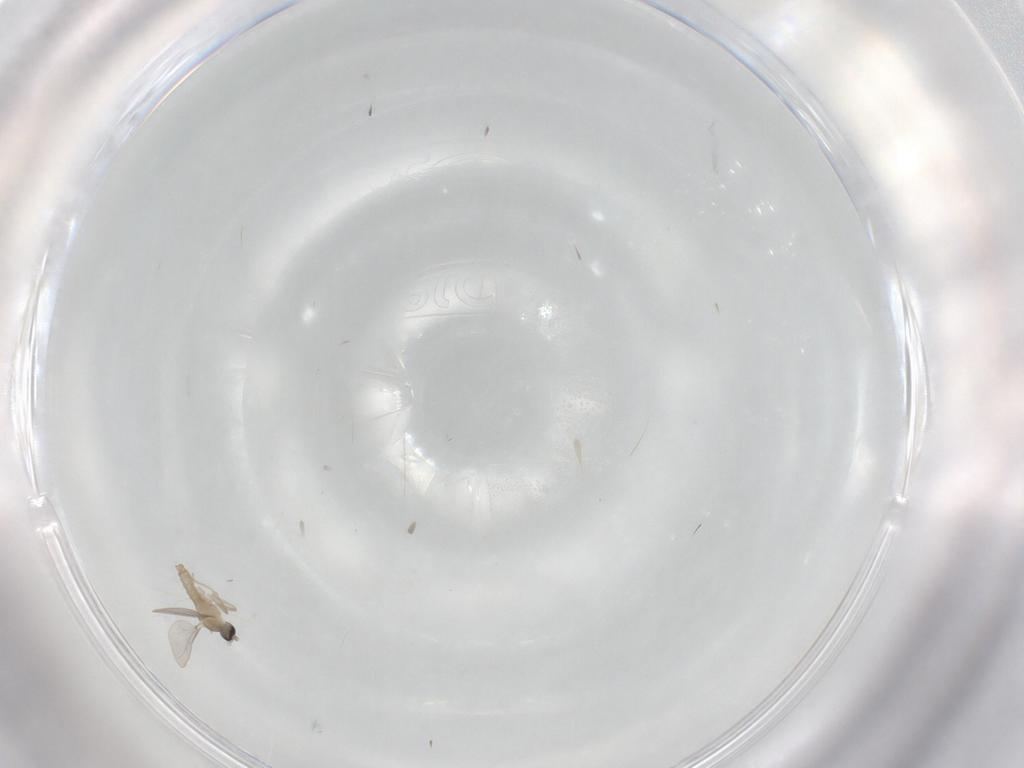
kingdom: Animalia
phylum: Arthropoda
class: Insecta
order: Diptera
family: Cecidomyiidae
